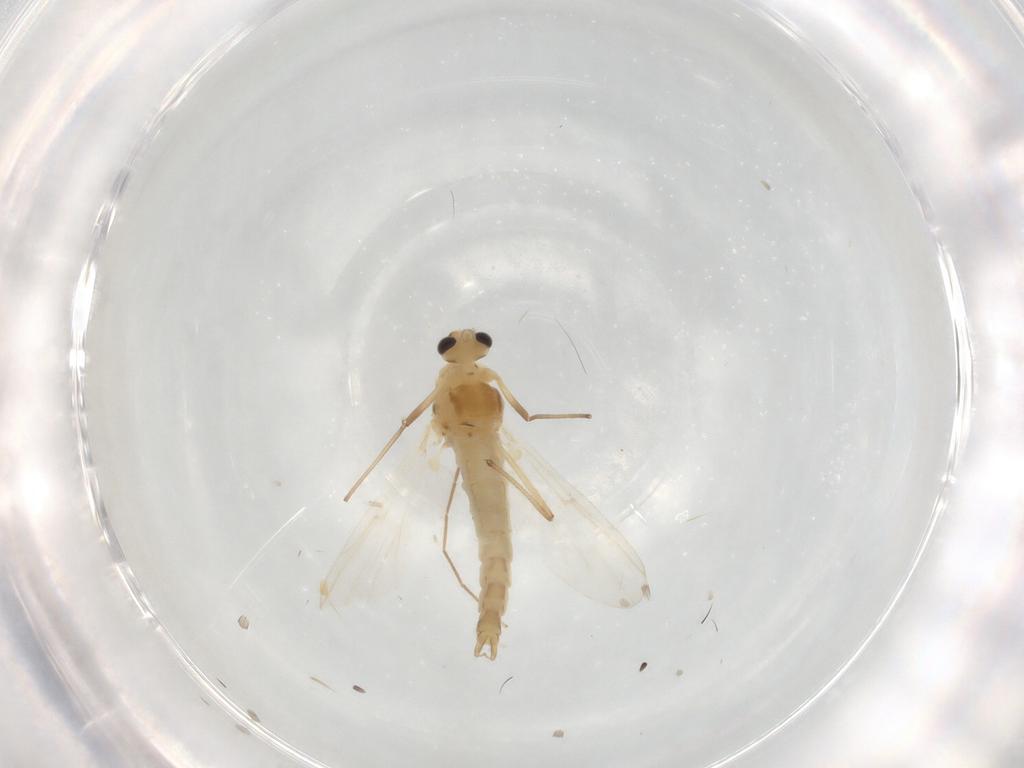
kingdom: Animalia
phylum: Arthropoda
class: Insecta
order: Diptera
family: Chironomidae
